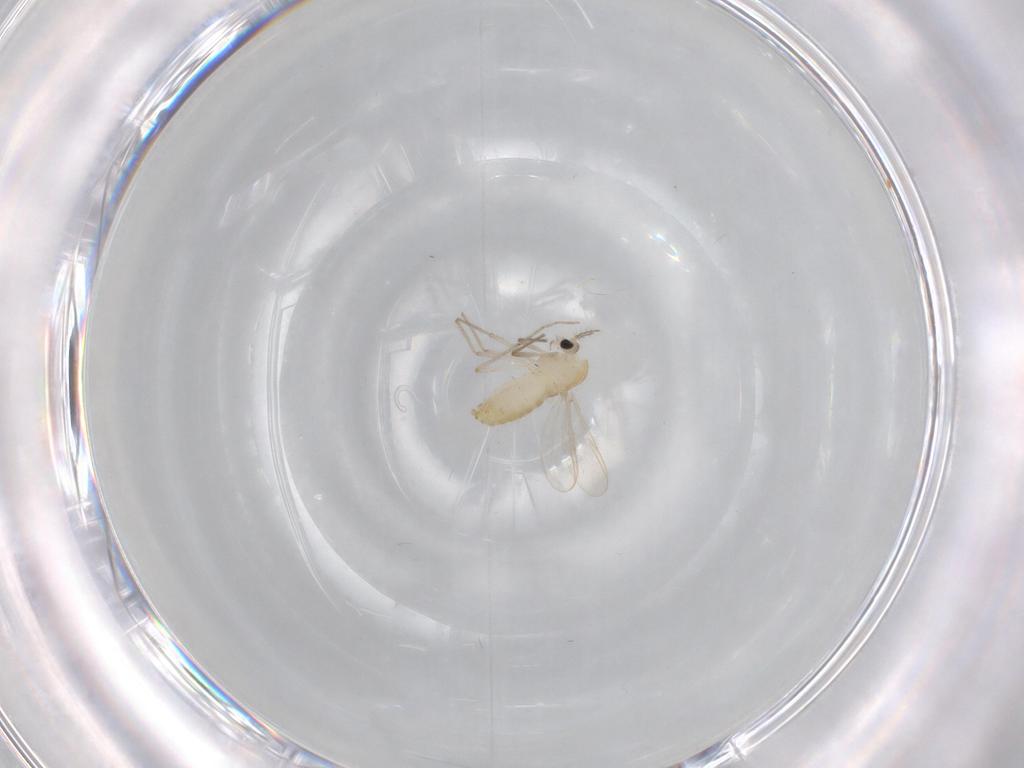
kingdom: Animalia
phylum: Arthropoda
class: Insecta
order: Diptera
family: Chironomidae
